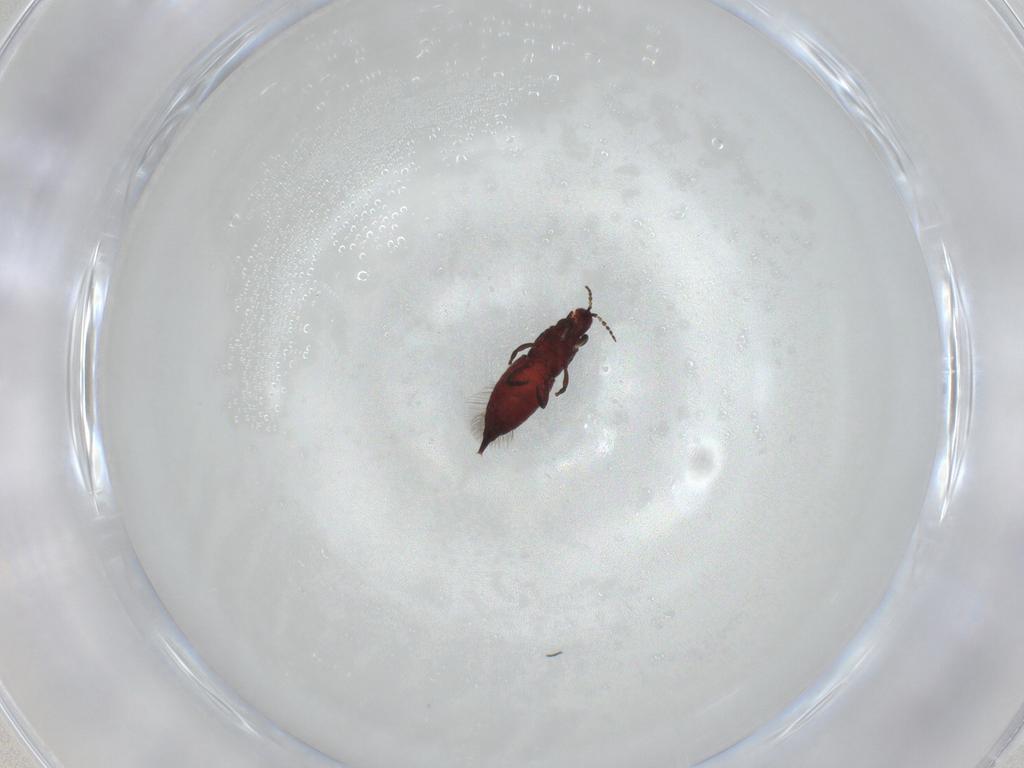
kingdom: Animalia
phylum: Arthropoda
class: Insecta
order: Thysanoptera
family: Phlaeothripidae
